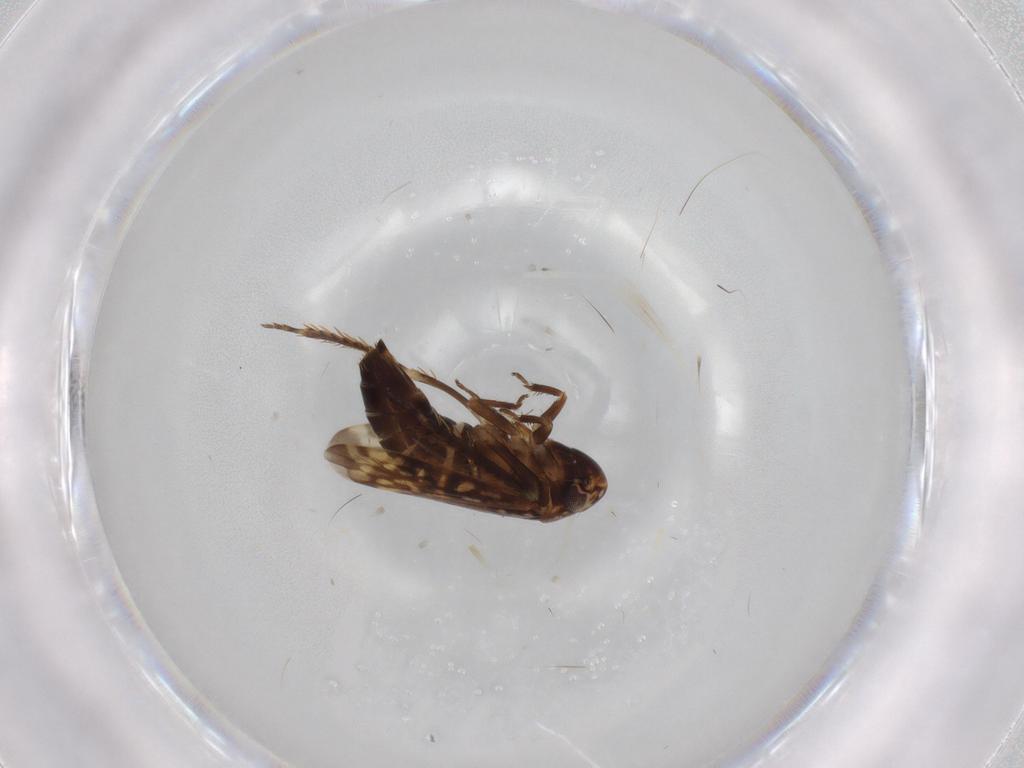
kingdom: Animalia
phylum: Arthropoda
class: Insecta
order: Hemiptera
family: Cicadellidae
